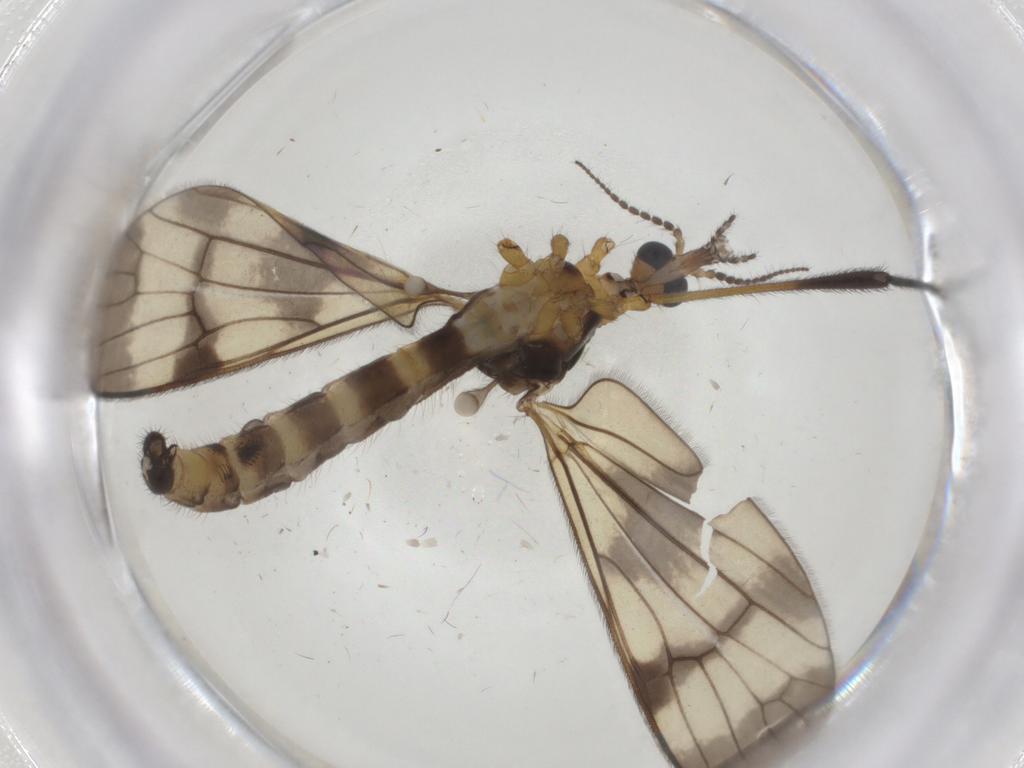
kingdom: Animalia
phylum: Arthropoda
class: Insecta
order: Diptera
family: Limoniidae
